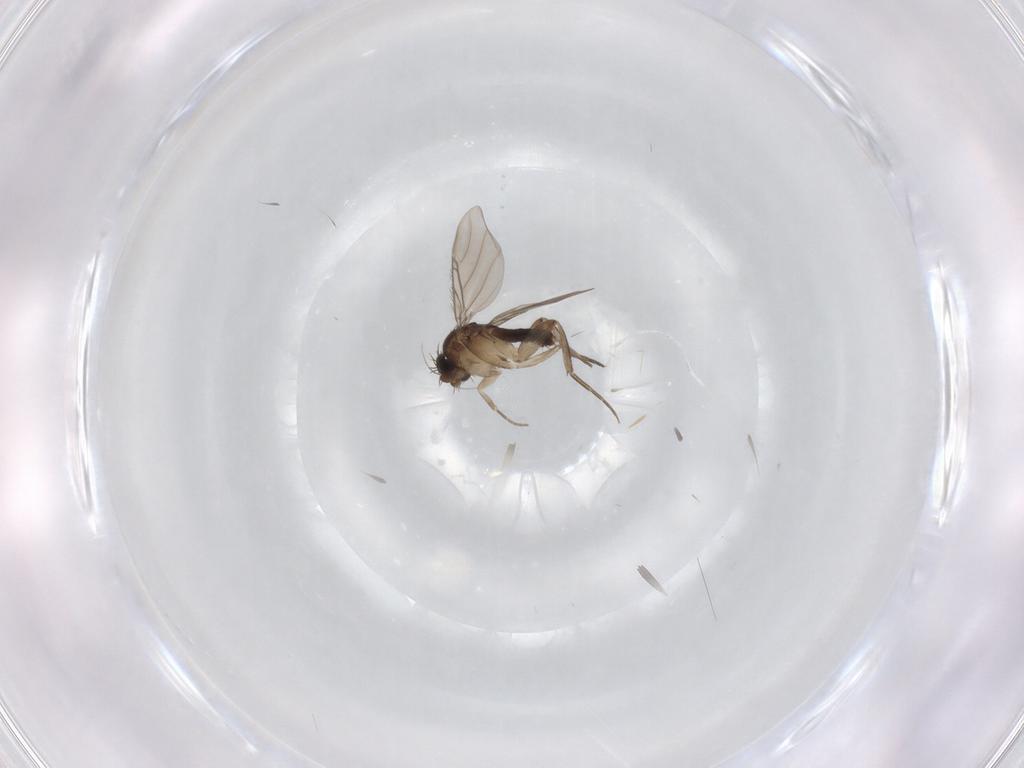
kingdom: Animalia
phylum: Arthropoda
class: Insecta
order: Diptera
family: Phoridae
